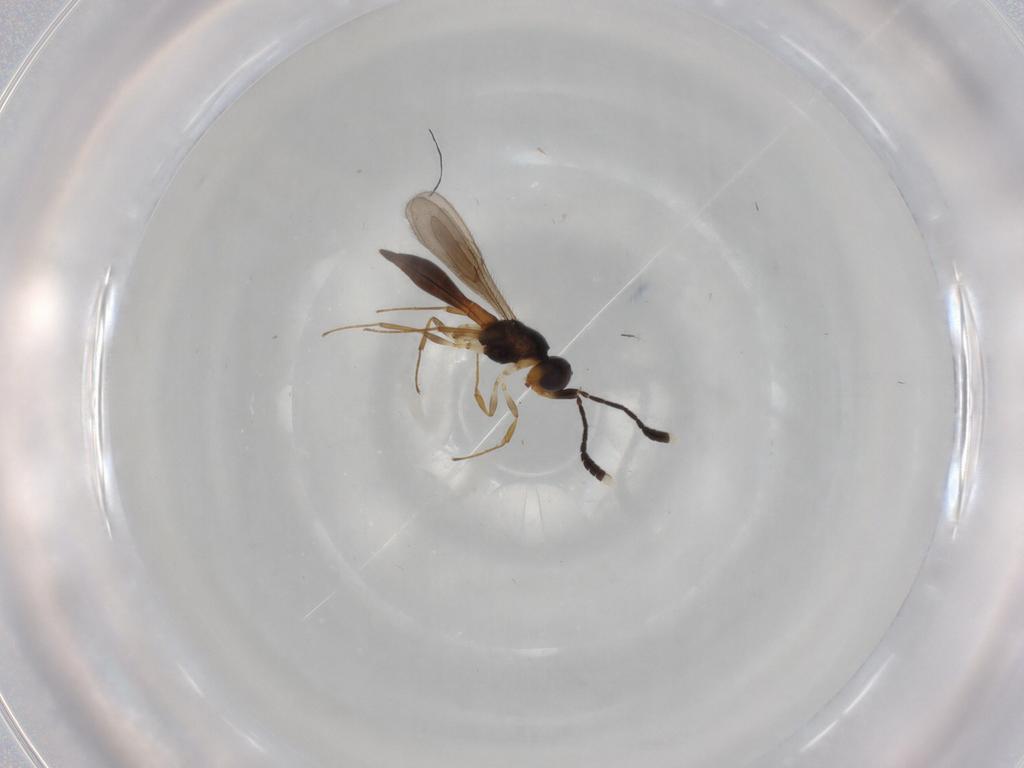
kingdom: Animalia
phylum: Arthropoda
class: Insecta
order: Hymenoptera
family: Scelionidae
